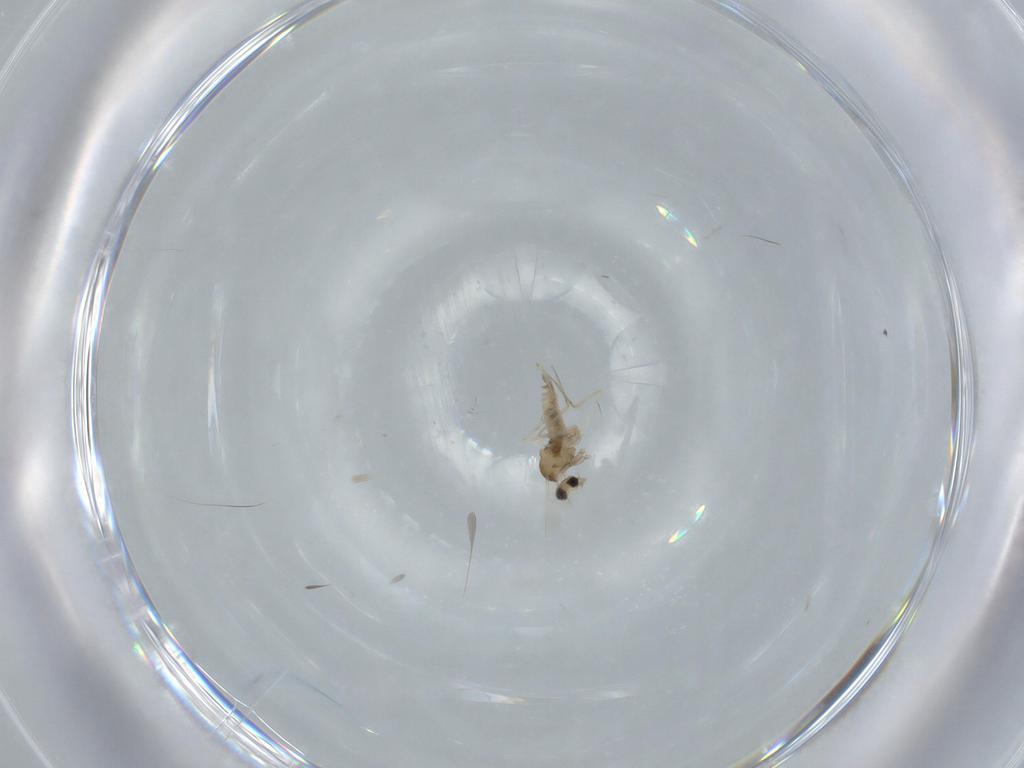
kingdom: Animalia
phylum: Arthropoda
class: Insecta
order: Diptera
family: Cecidomyiidae
